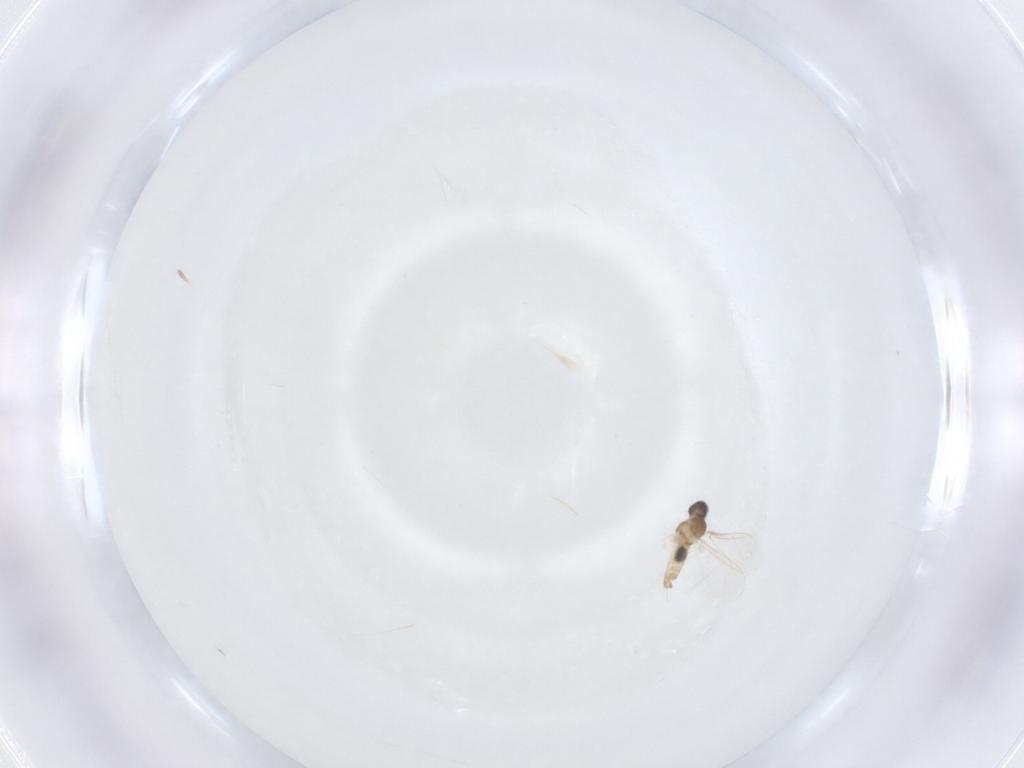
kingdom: Animalia
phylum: Arthropoda
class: Insecta
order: Diptera
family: Cecidomyiidae
